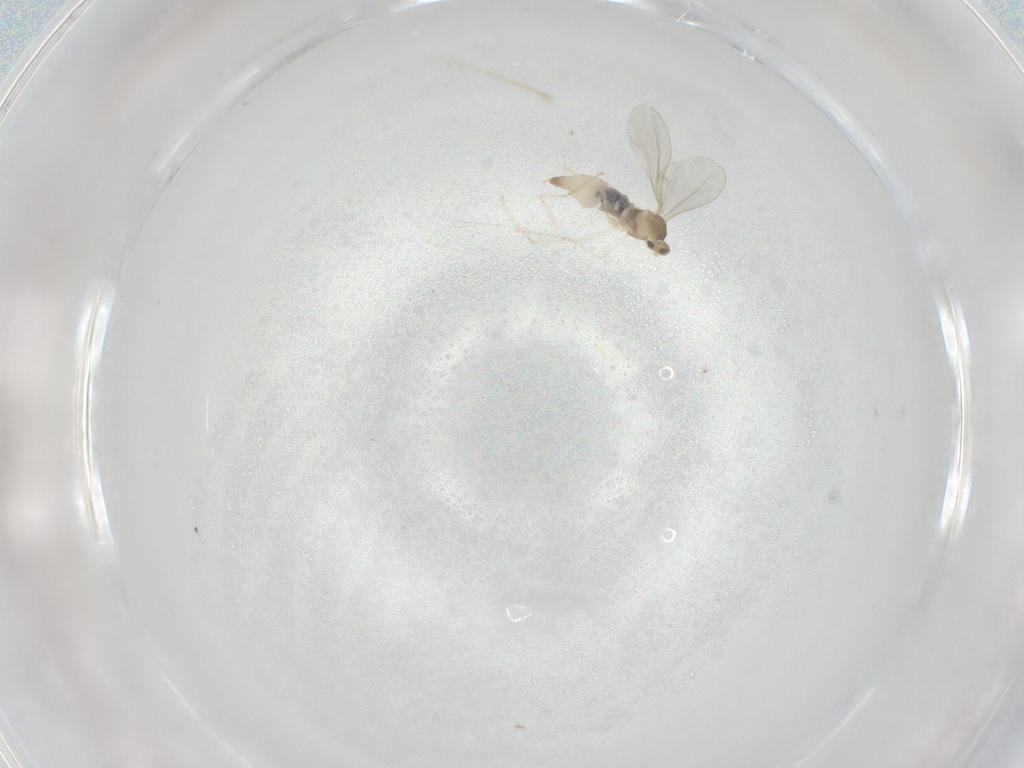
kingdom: Animalia
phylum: Arthropoda
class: Insecta
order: Diptera
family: Cecidomyiidae
